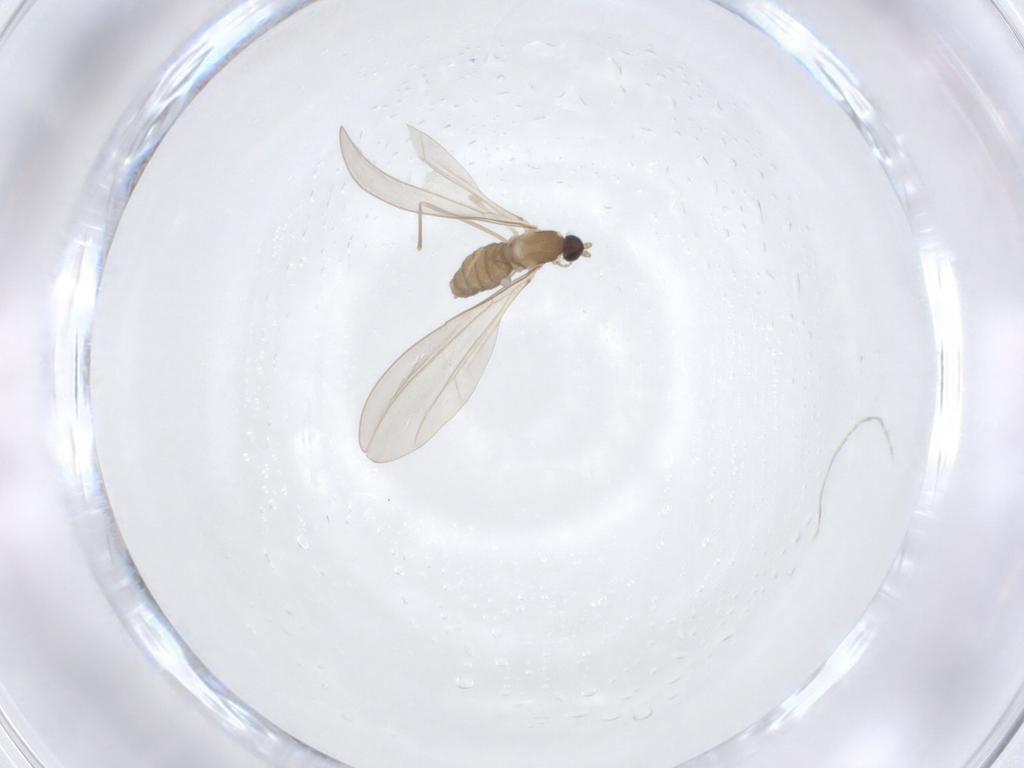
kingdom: Animalia
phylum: Arthropoda
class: Insecta
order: Diptera
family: Cecidomyiidae
